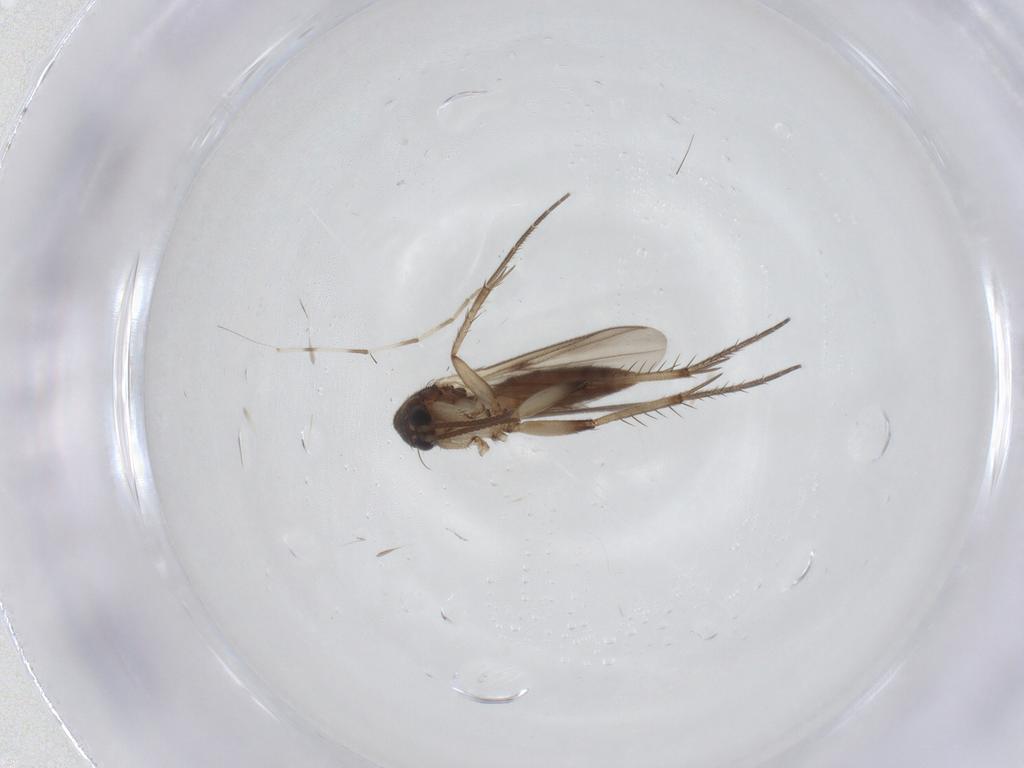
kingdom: Animalia
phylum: Arthropoda
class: Insecta
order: Diptera
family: Mycetophilidae
